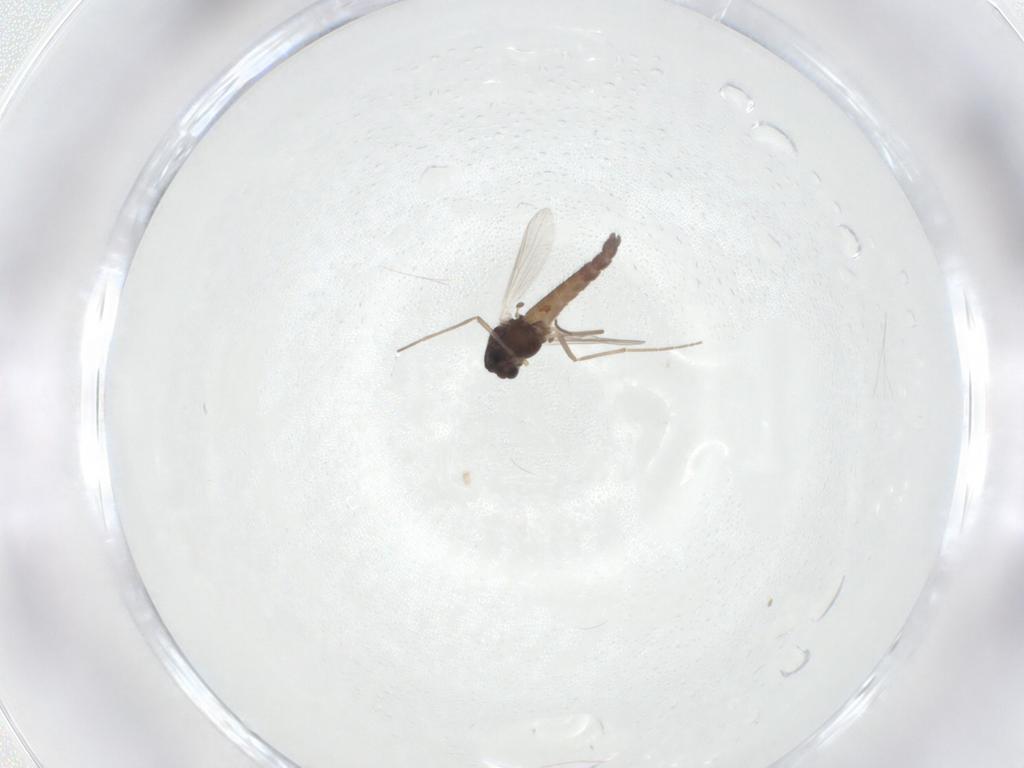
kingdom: Animalia
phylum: Arthropoda
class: Insecta
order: Diptera
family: Chironomidae
